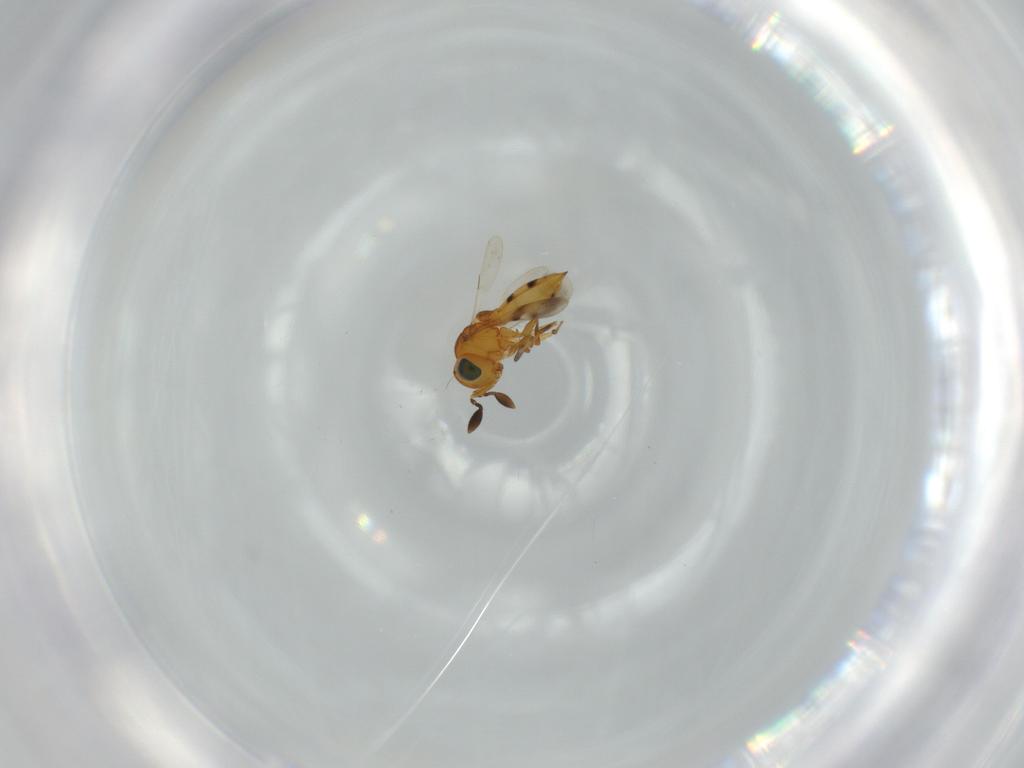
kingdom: Animalia
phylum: Arthropoda
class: Insecta
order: Hymenoptera
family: Scelionidae
